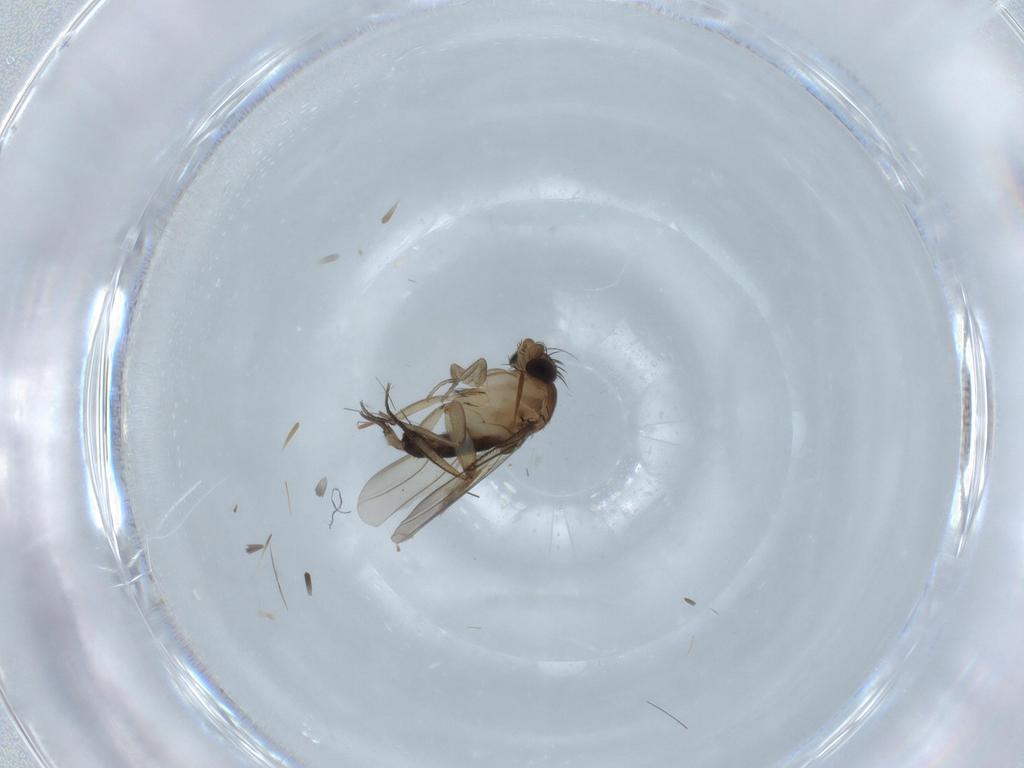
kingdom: Animalia
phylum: Arthropoda
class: Insecta
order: Diptera
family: Phoridae
